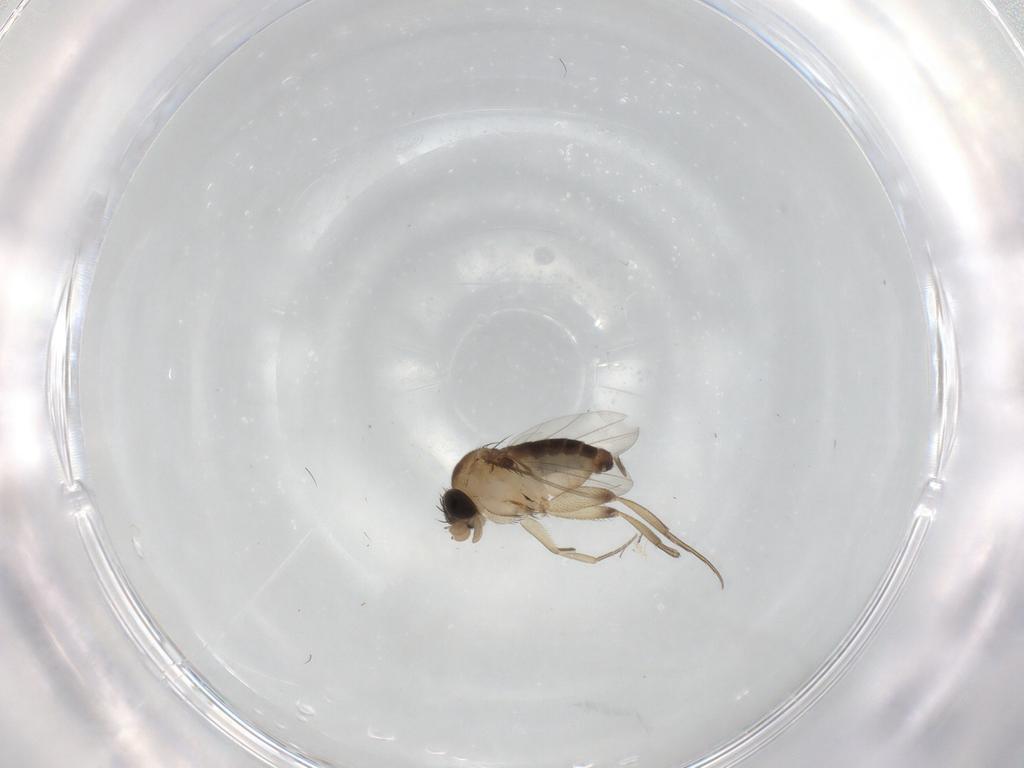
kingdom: Animalia
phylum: Arthropoda
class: Insecta
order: Diptera
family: Phoridae
